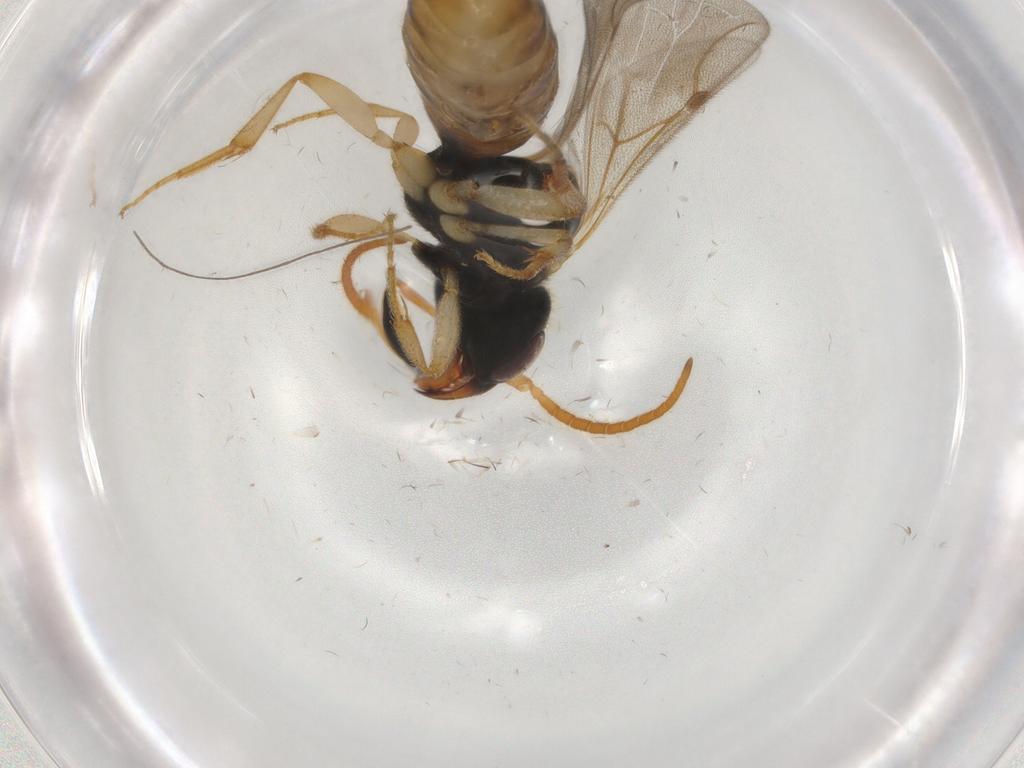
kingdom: Animalia
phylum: Arthropoda
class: Insecta
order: Hymenoptera
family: Bethylidae
